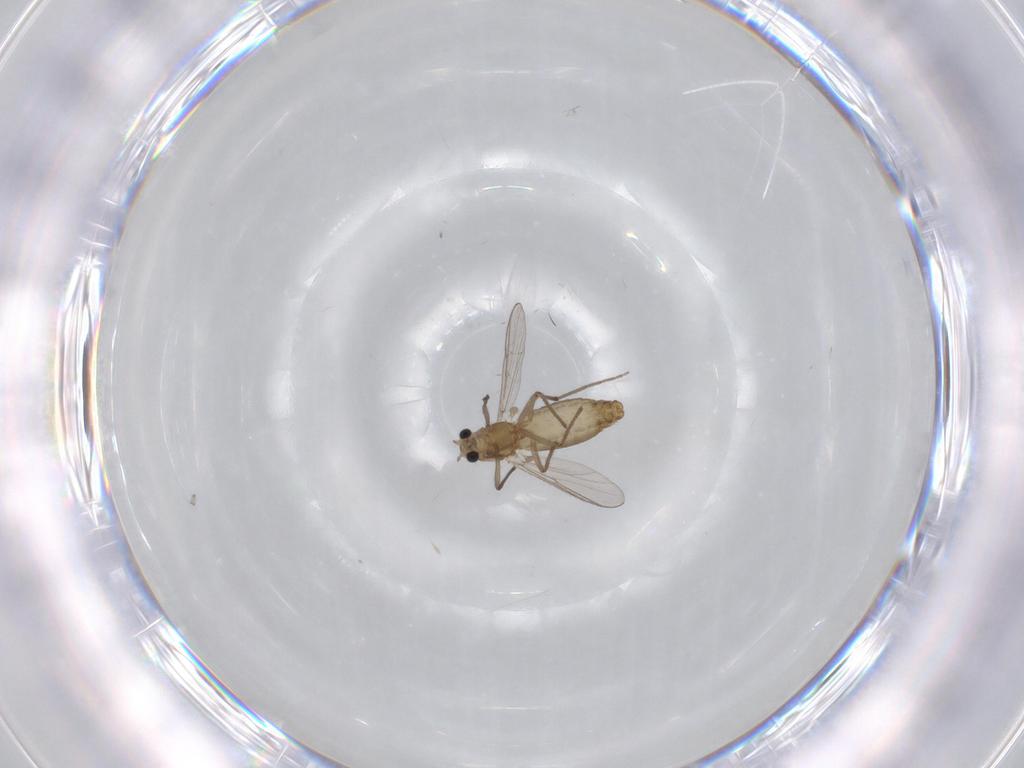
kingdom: Animalia
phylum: Arthropoda
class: Insecta
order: Diptera
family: Chironomidae
